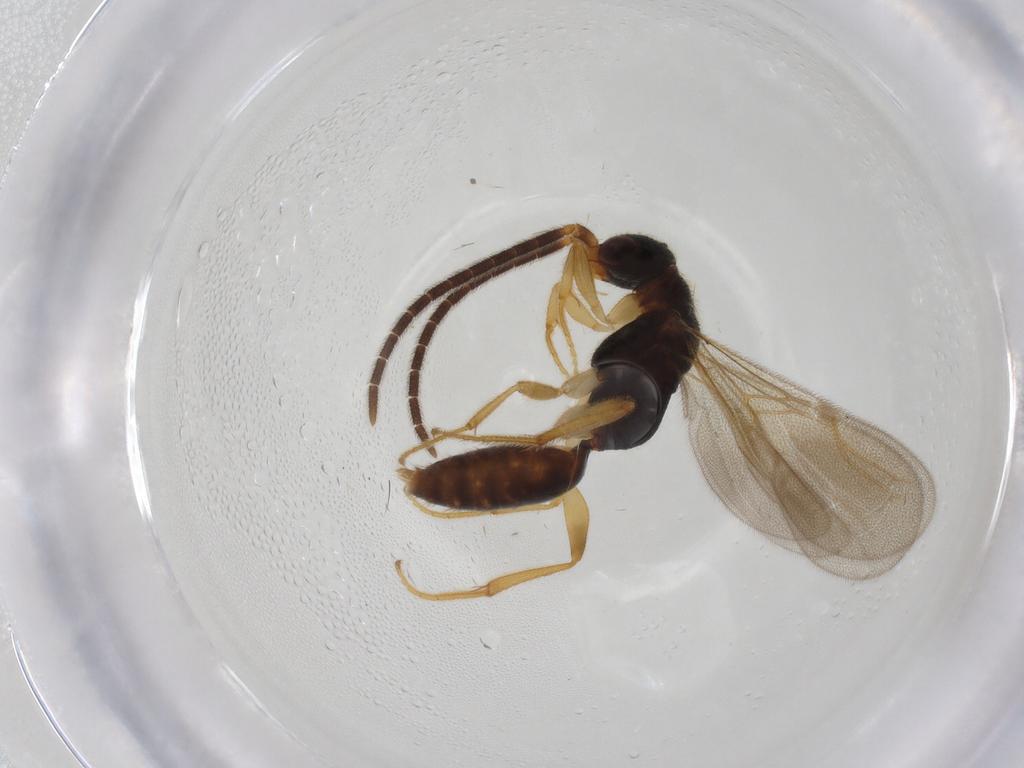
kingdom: Animalia
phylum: Arthropoda
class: Insecta
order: Hymenoptera
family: Bethylidae
